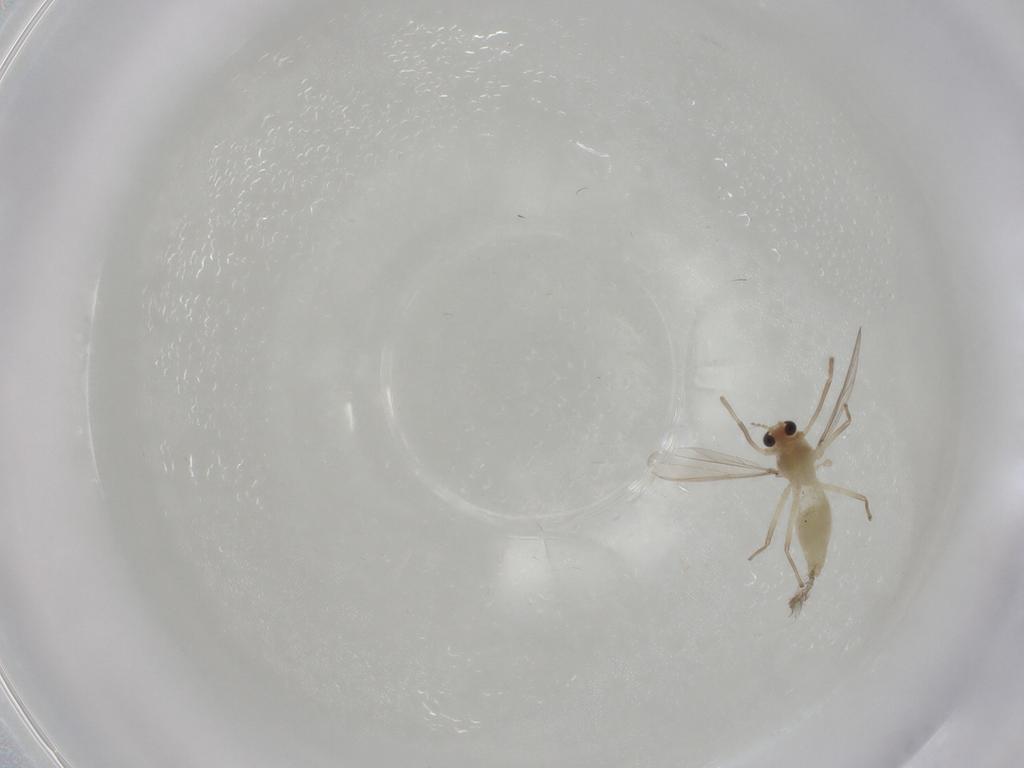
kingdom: Animalia
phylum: Arthropoda
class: Insecta
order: Diptera
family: Chironomidae
